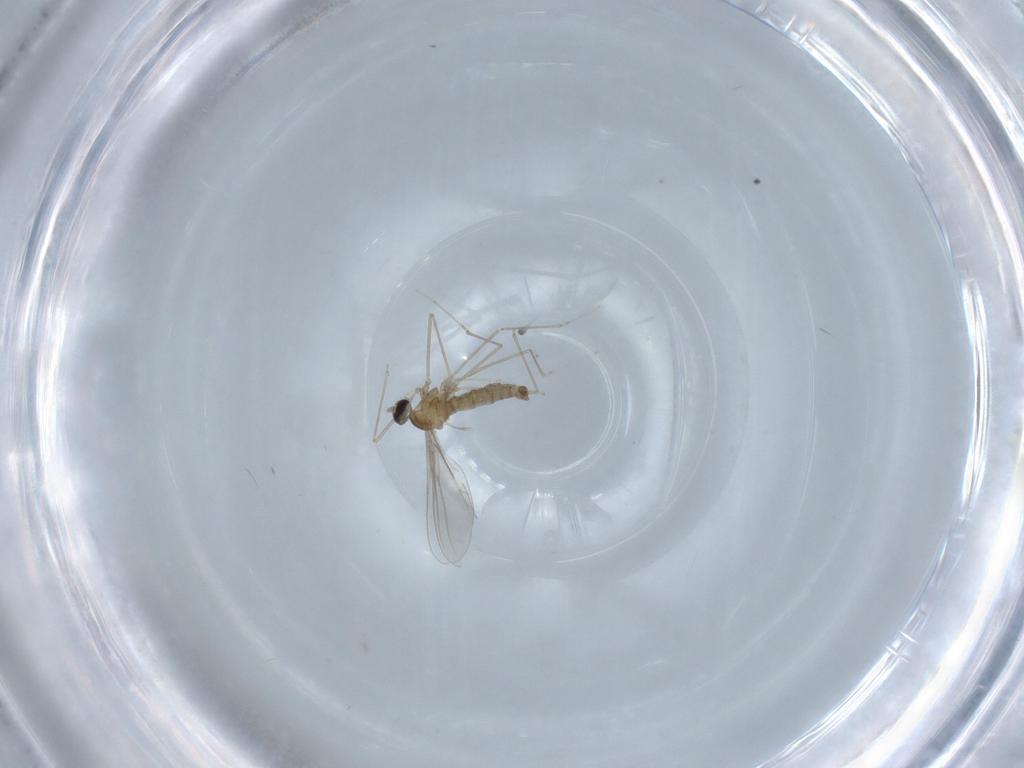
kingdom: Animalia
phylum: Arthropoda
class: Insecta
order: Diptera
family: Cecidomyiidae
